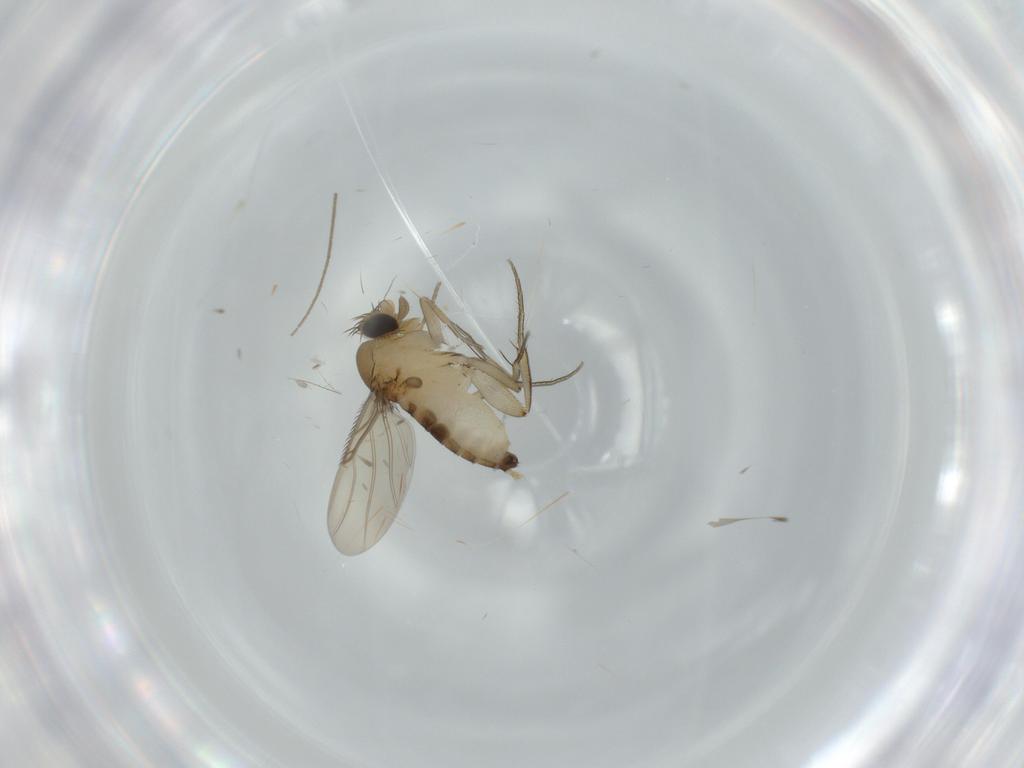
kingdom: Animalia
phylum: Arthropoda
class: Insecta
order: Diptera
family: Phoridae
